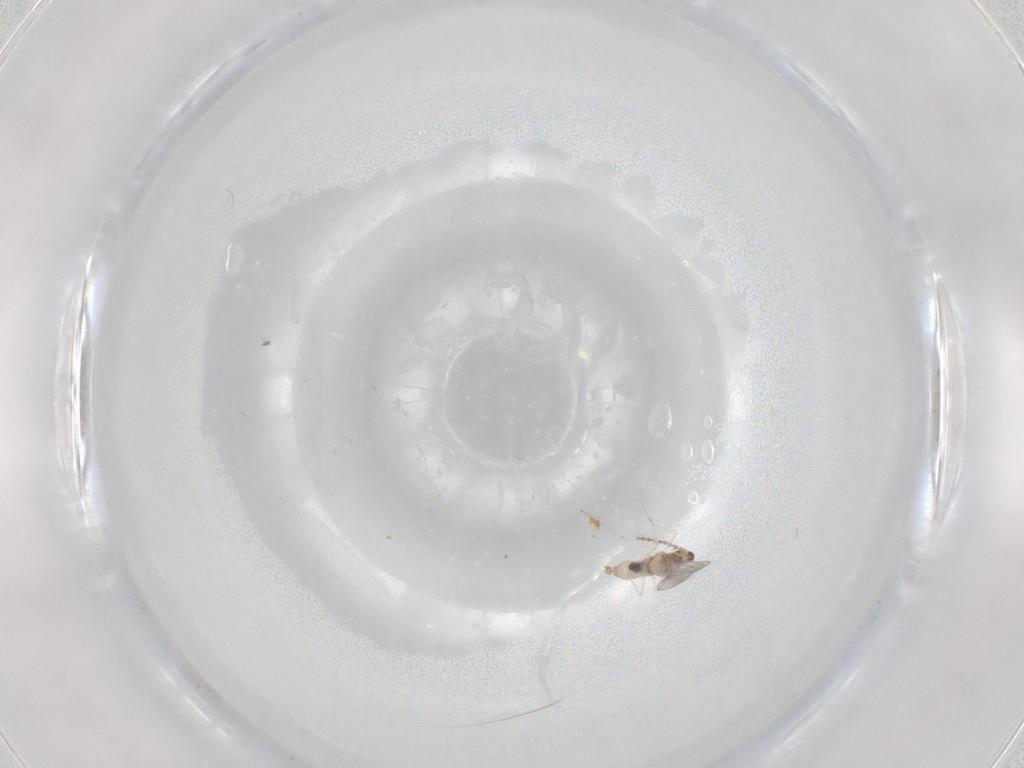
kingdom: Animalia
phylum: Arthropoda
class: Insecta
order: Diptera
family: Cecidomyiidae
